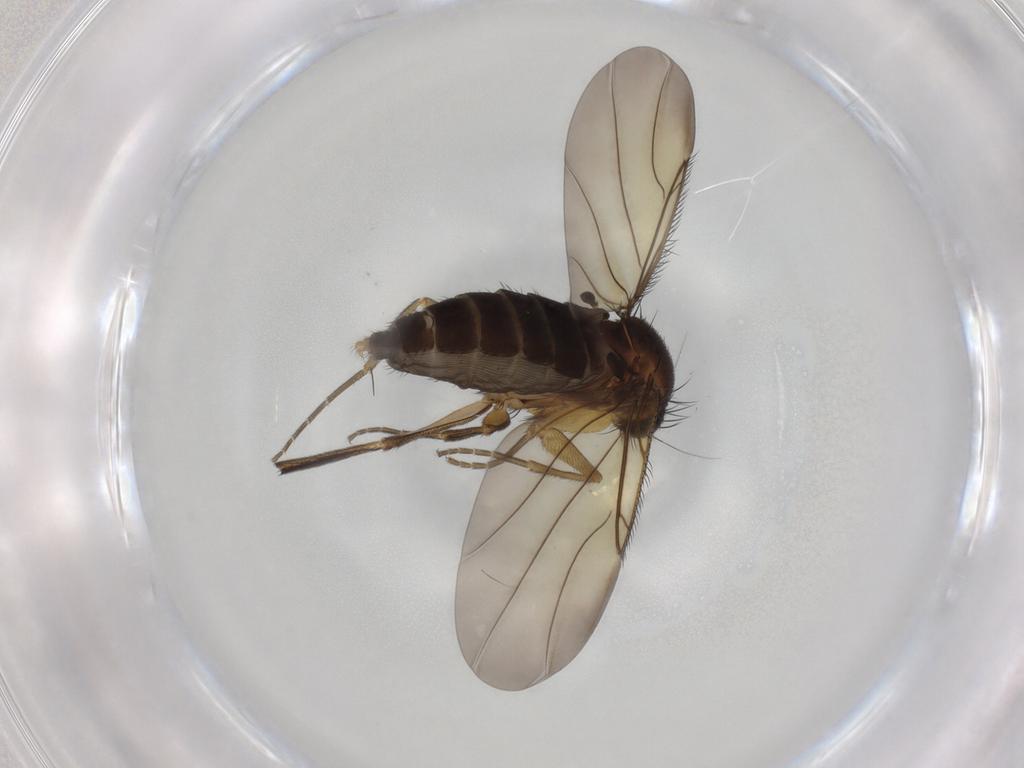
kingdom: Animalia
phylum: Arthropoda
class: Insecta
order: Diptera
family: Phoridae
